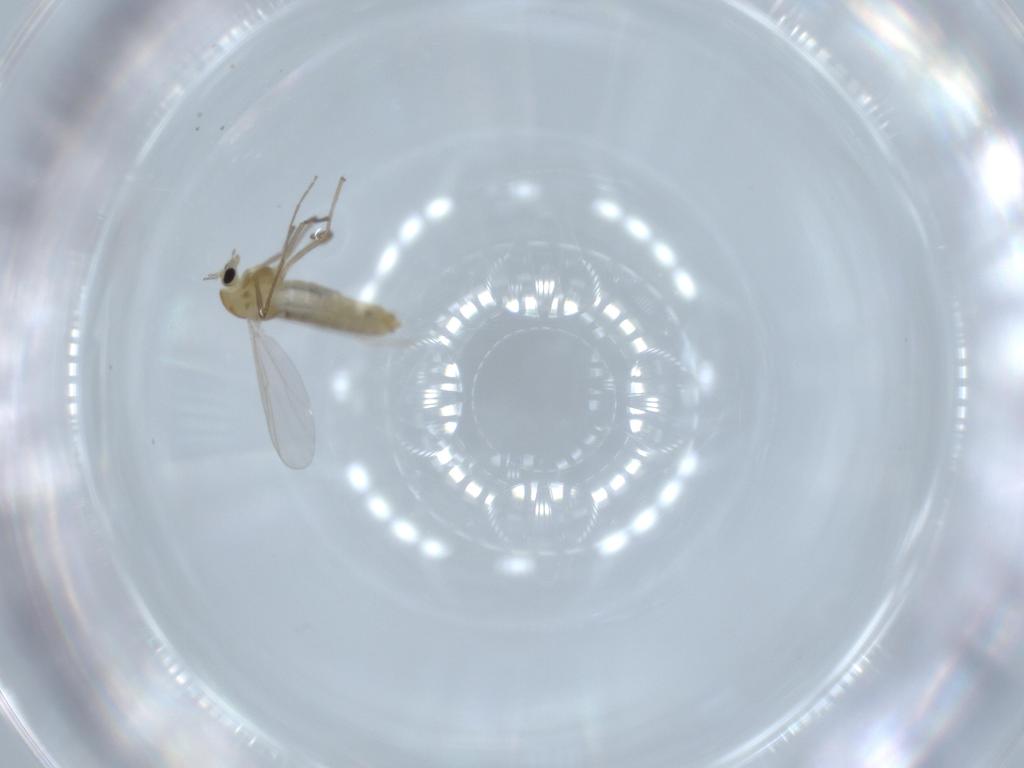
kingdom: Animalia
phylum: Arthropoda
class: Insecta
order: Diptera
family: Chironomidae
